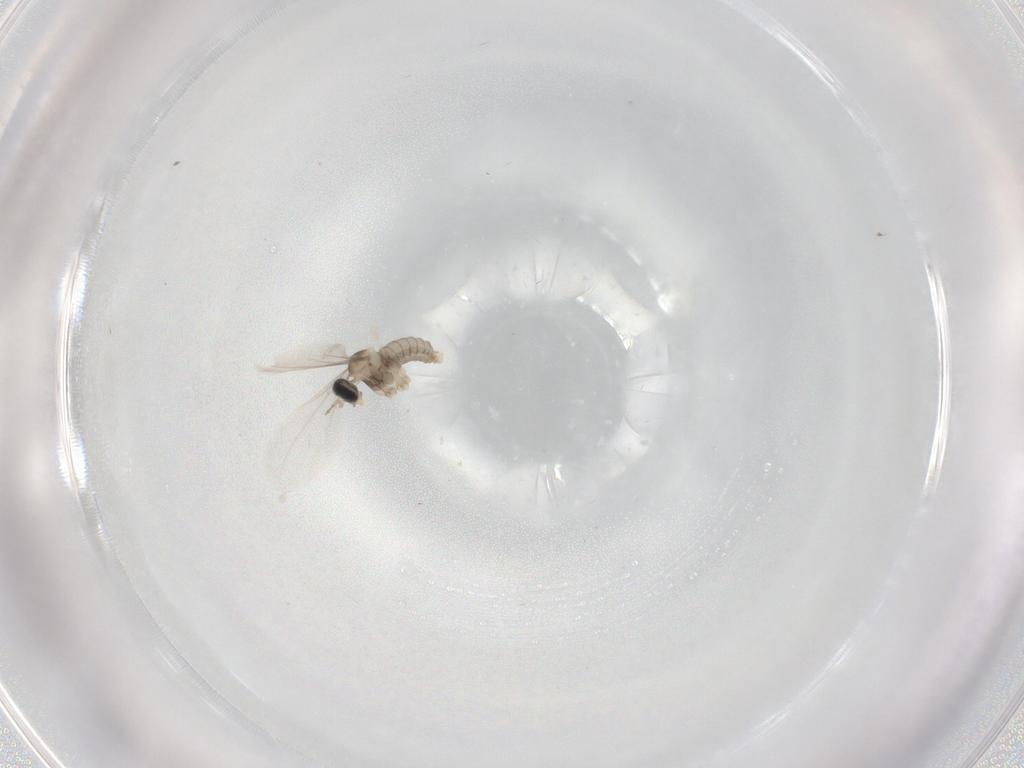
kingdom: Animalia
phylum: Arthropoda
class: Insecta
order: Diptera
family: Cecidomyiidae
